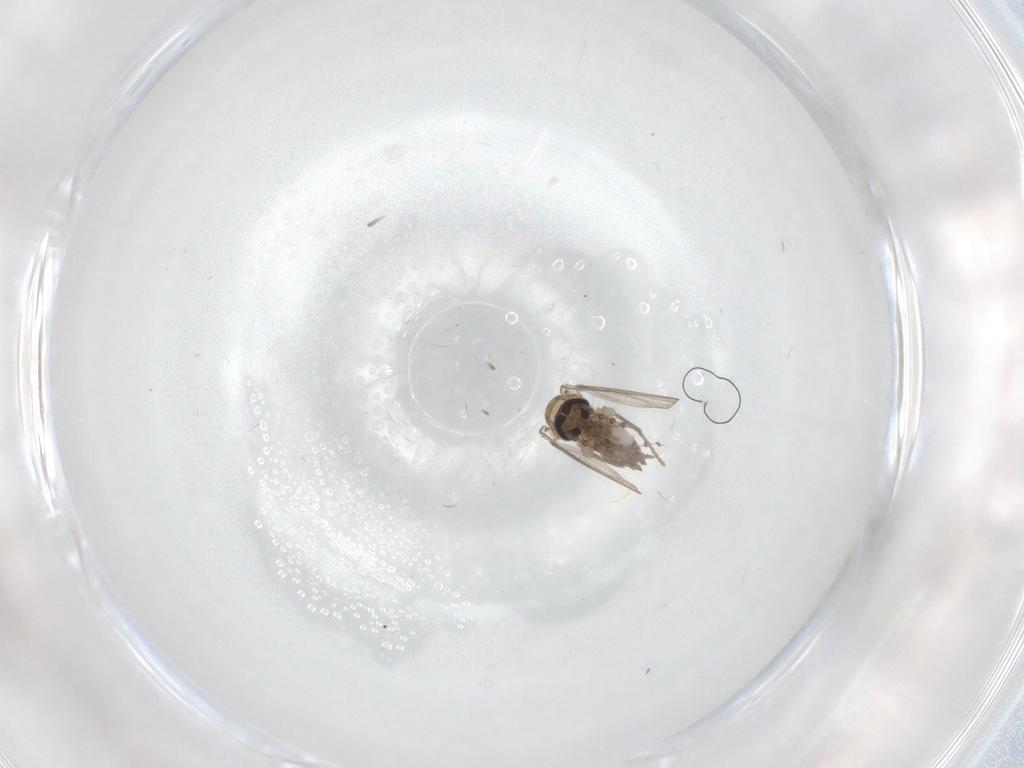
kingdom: Animalia
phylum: Arthropoda
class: Insecta
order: Diptera
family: Psychodidae
